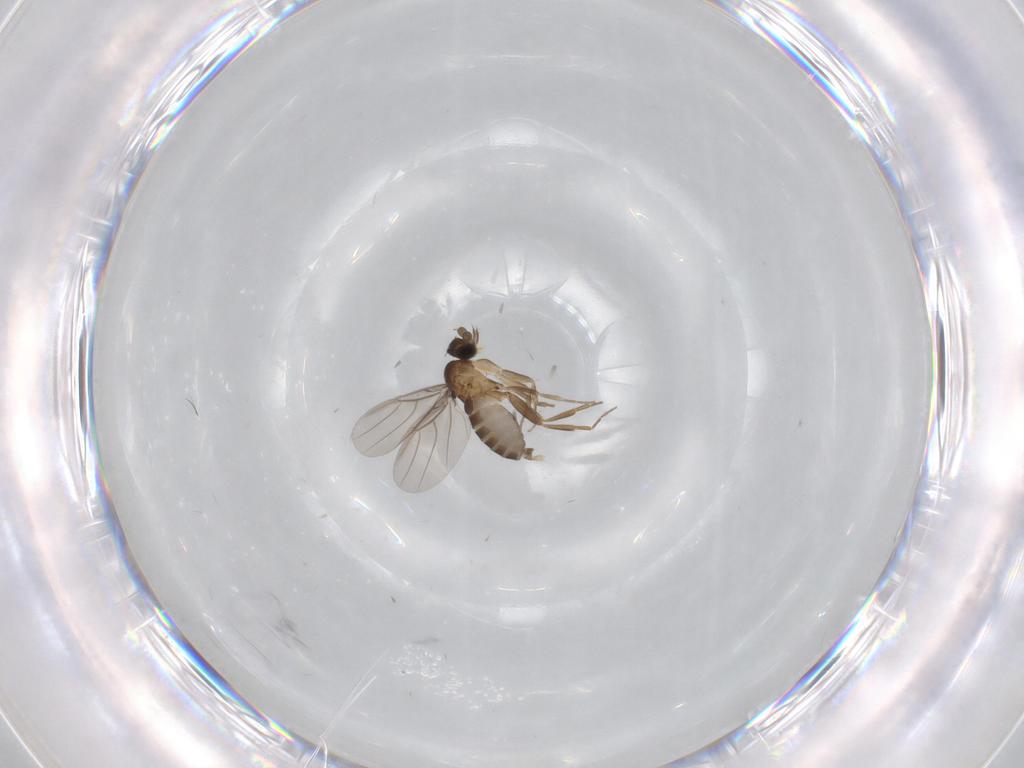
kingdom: Animalia
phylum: Arthropoda
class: Insecta
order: Diptera
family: Phoridae
